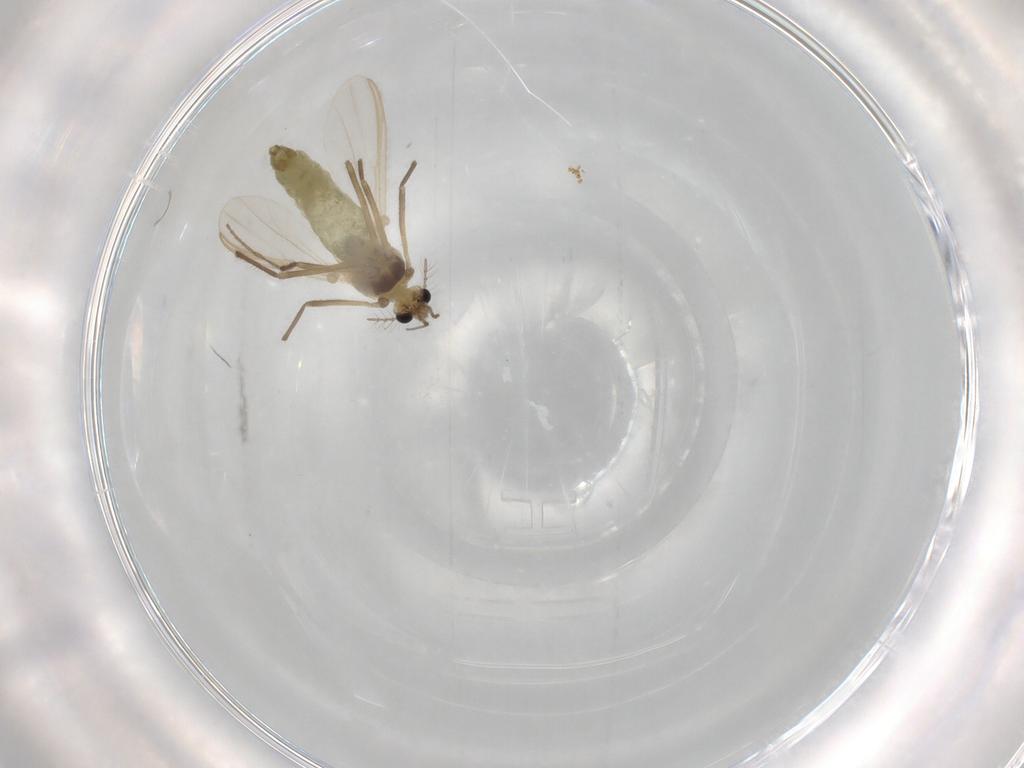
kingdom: Animalia
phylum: Arthropoda
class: Insecta
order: Diptera
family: Chironomidae
